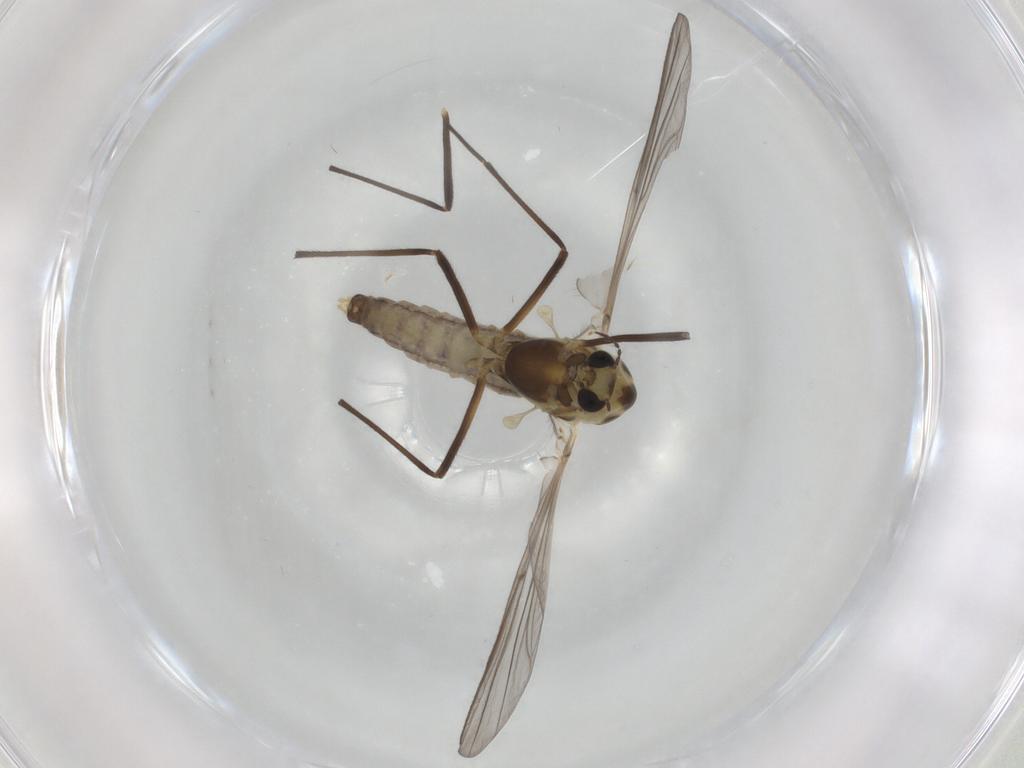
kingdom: Animalia
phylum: Arthropoda
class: Insecta
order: Diptera
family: Chironomidae
